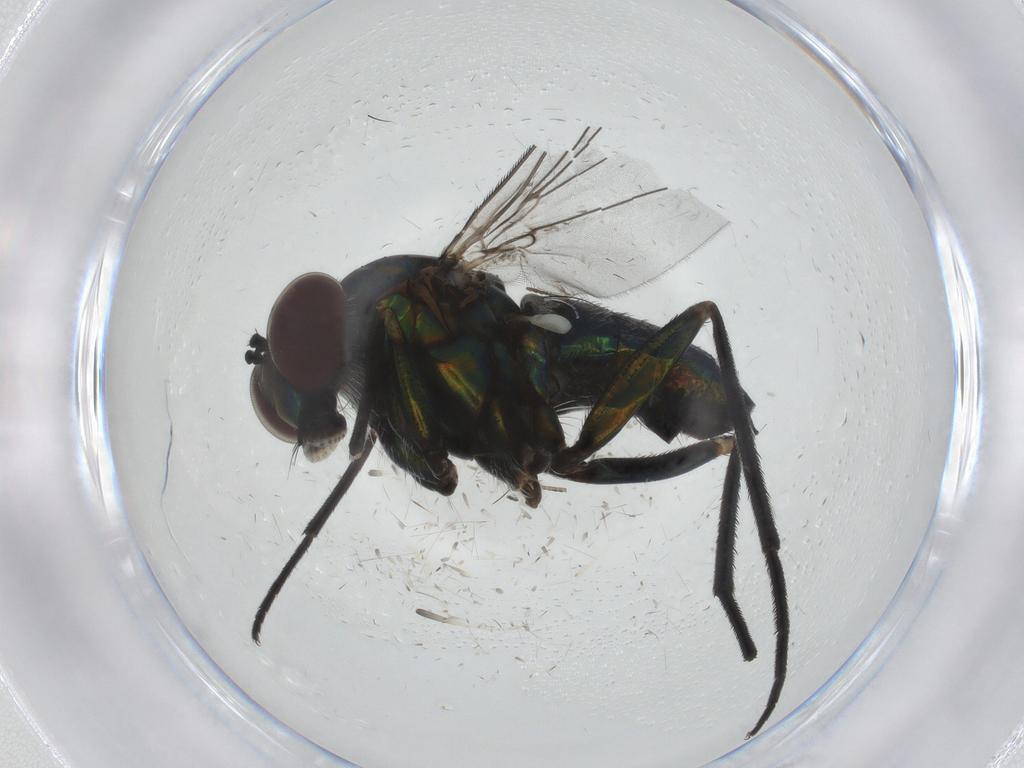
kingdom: Animalia
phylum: Arthropoda
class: Insecta
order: Diptera
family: Dolichopodidae
